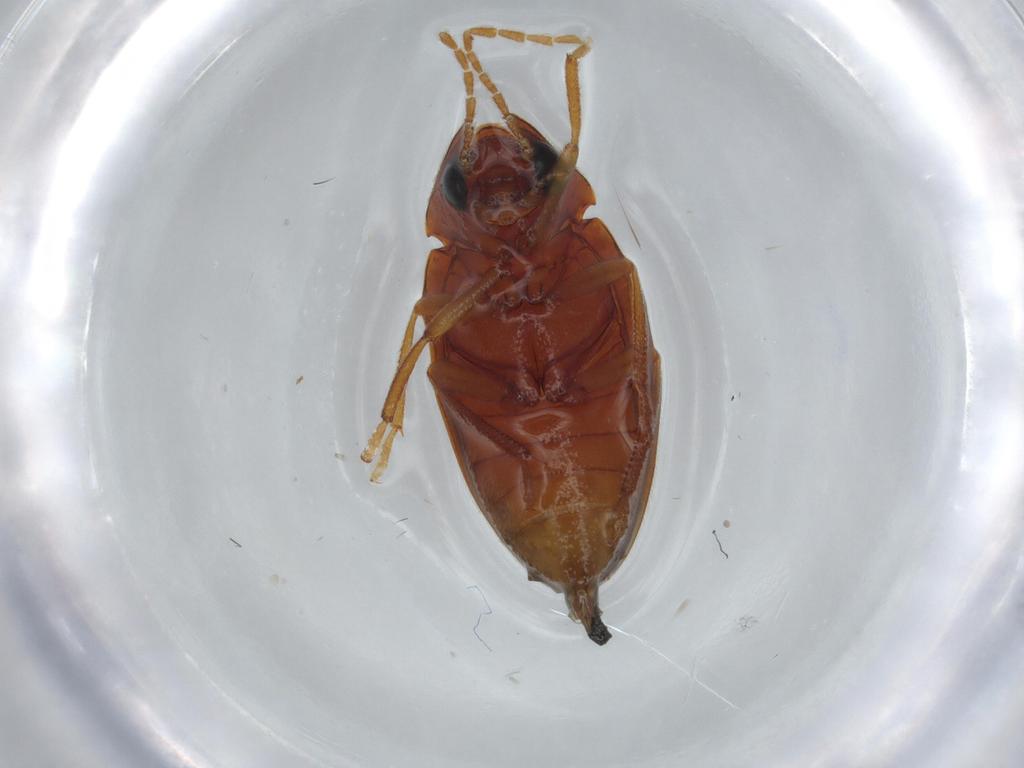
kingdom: Animalia
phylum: Arthropoda
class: Insecta
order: Coleoptera
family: Ptilodactylidae
